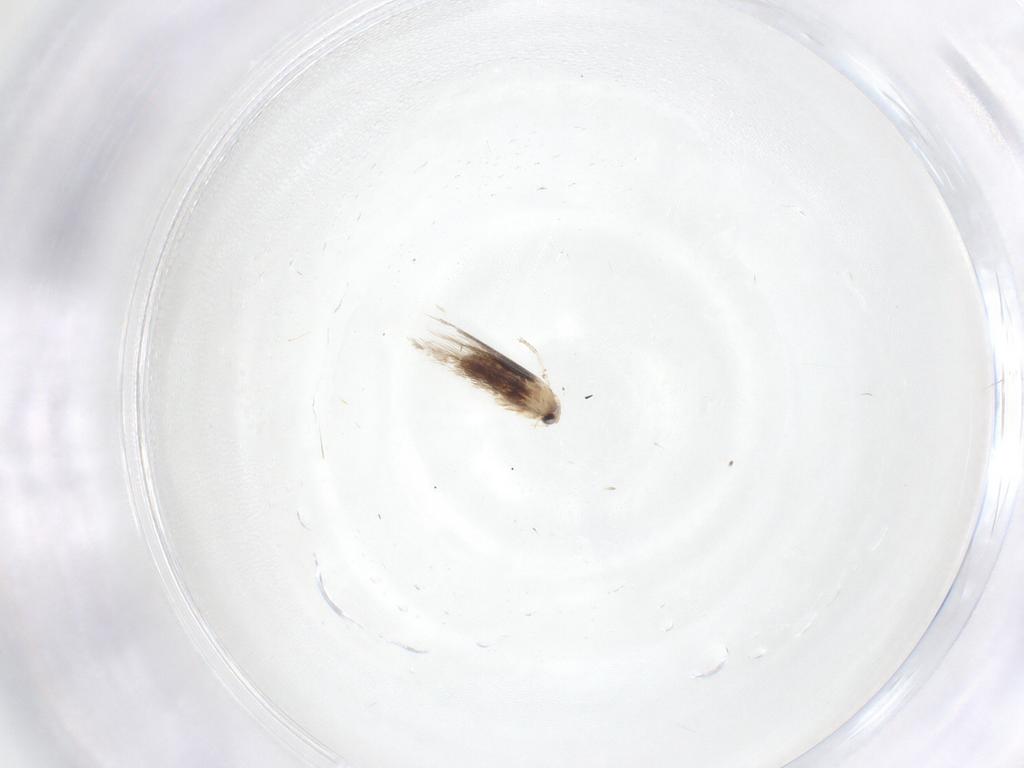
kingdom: Animalia
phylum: Arthropoda
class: Insecta
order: Lepidoptera
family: Nepticulidae
